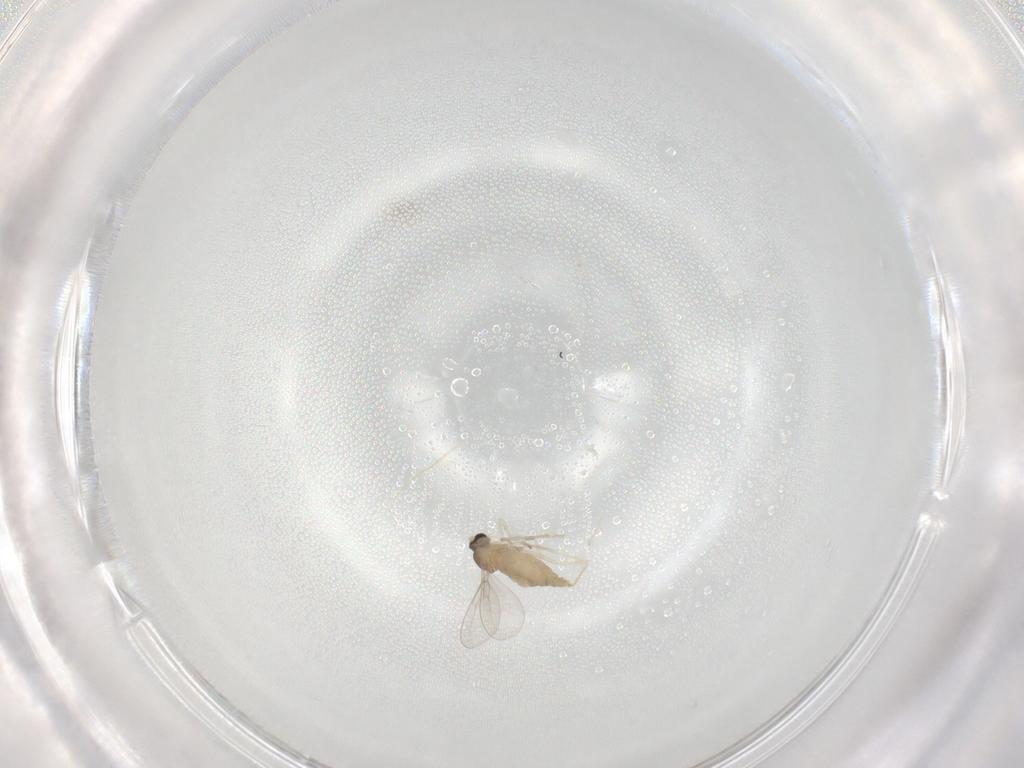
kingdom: Animalia
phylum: Arthropoda
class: Insecta
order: Diptera
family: Cecidomyiidae
